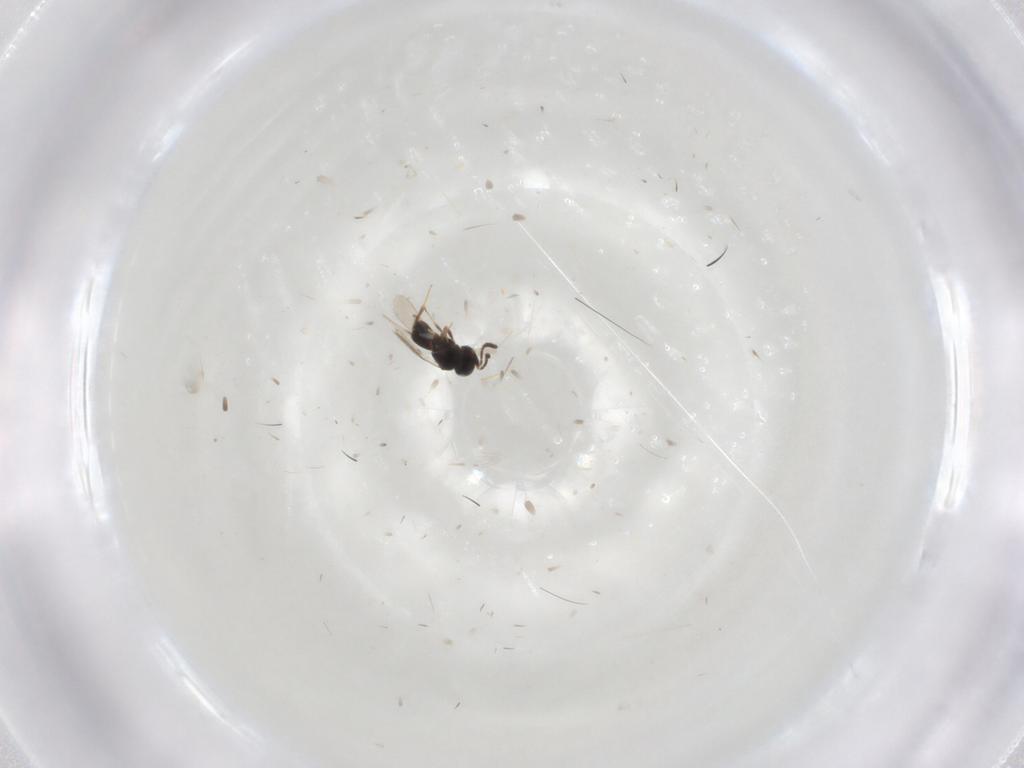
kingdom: Animalia
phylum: Arthropoda
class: Insecta
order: Hymenoptera
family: Scelionidae
